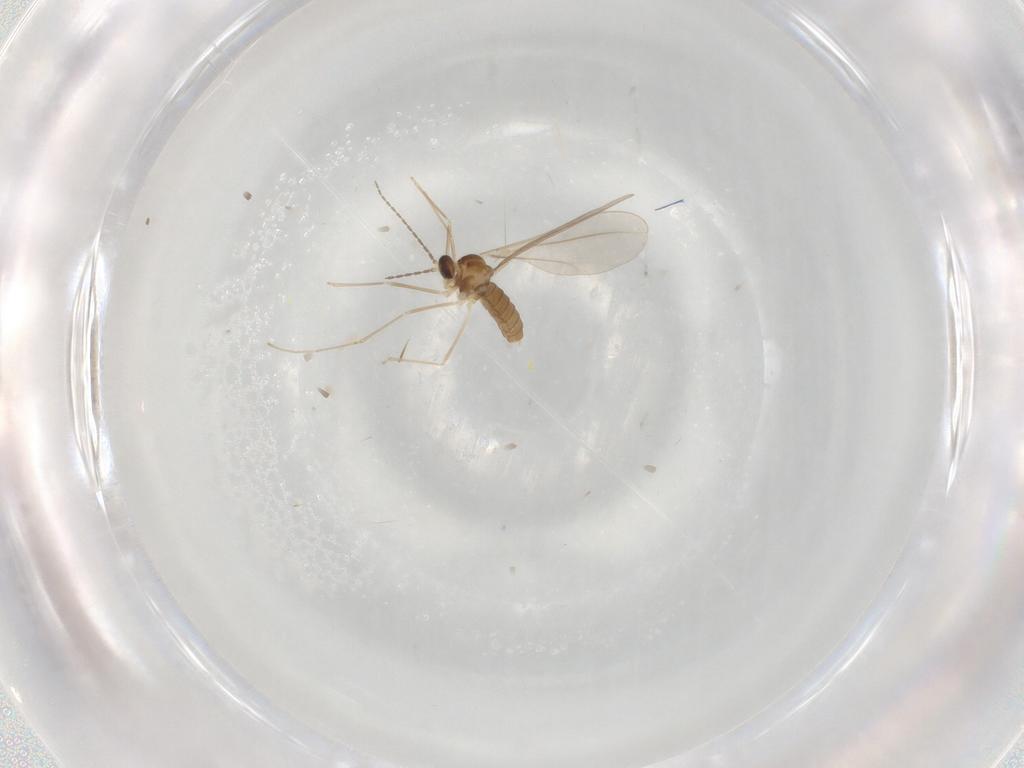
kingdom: Animalia
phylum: Arthropoda
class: Insecta
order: Diptera
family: Cecidomyiidae
